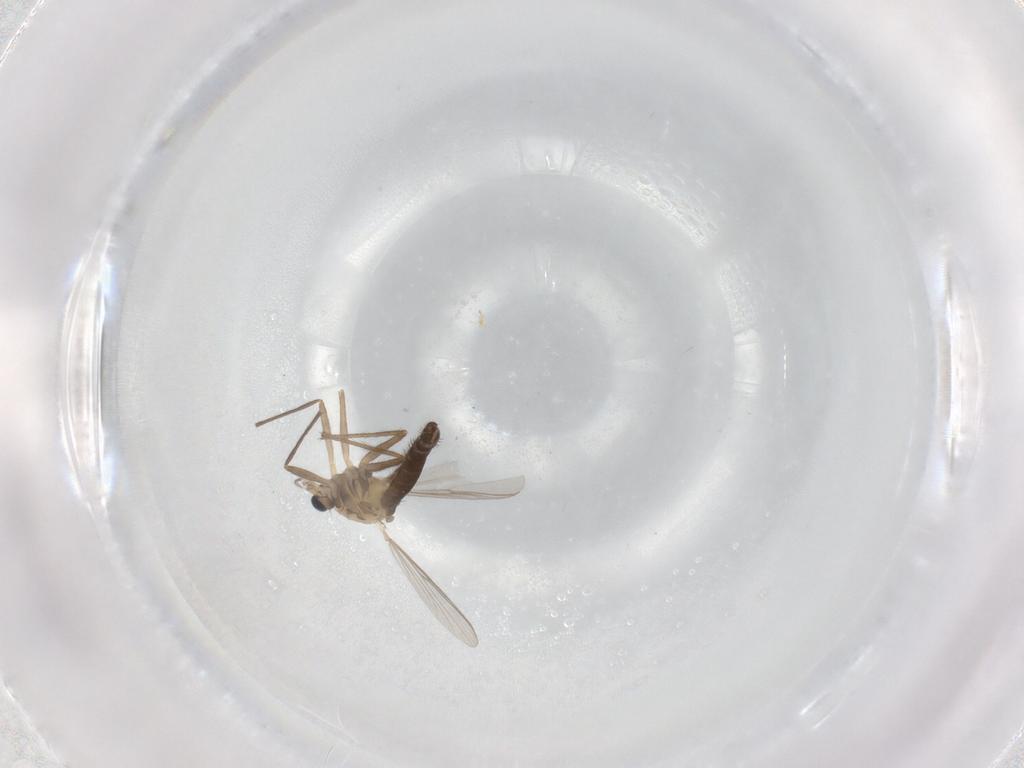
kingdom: Animalia
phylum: Arthropoda
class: Insecta
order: Diptera
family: Chironomidae
